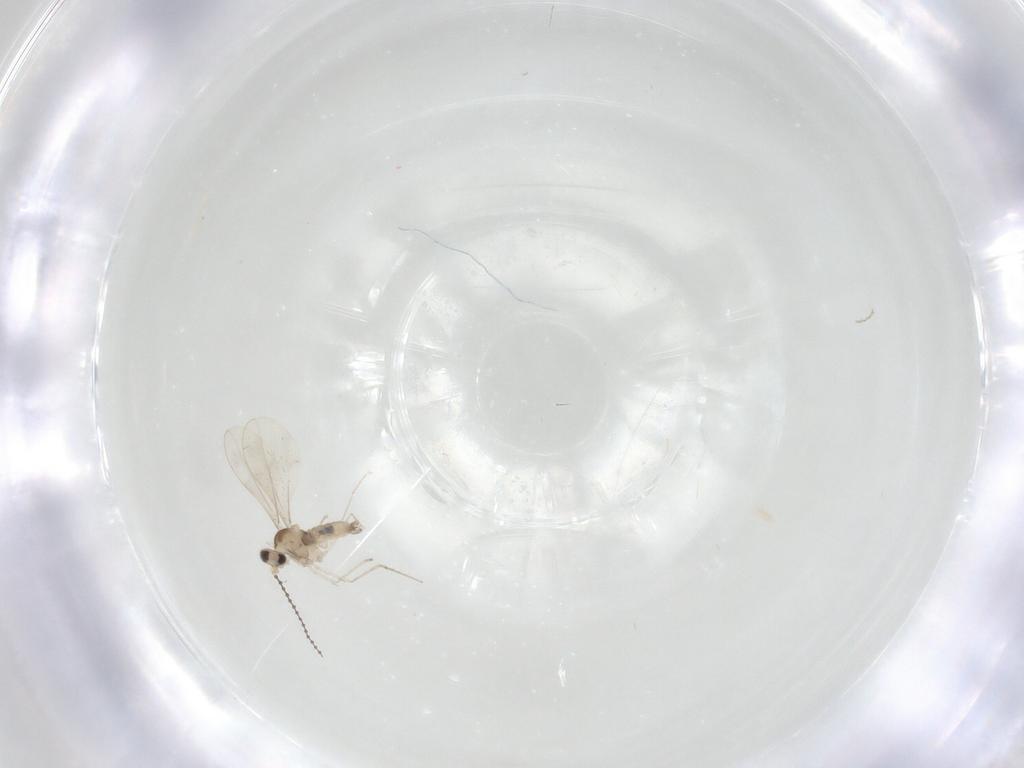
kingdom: Animalia
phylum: Arthropoda
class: Insecta
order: Diptera
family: Cecidomyiidae
